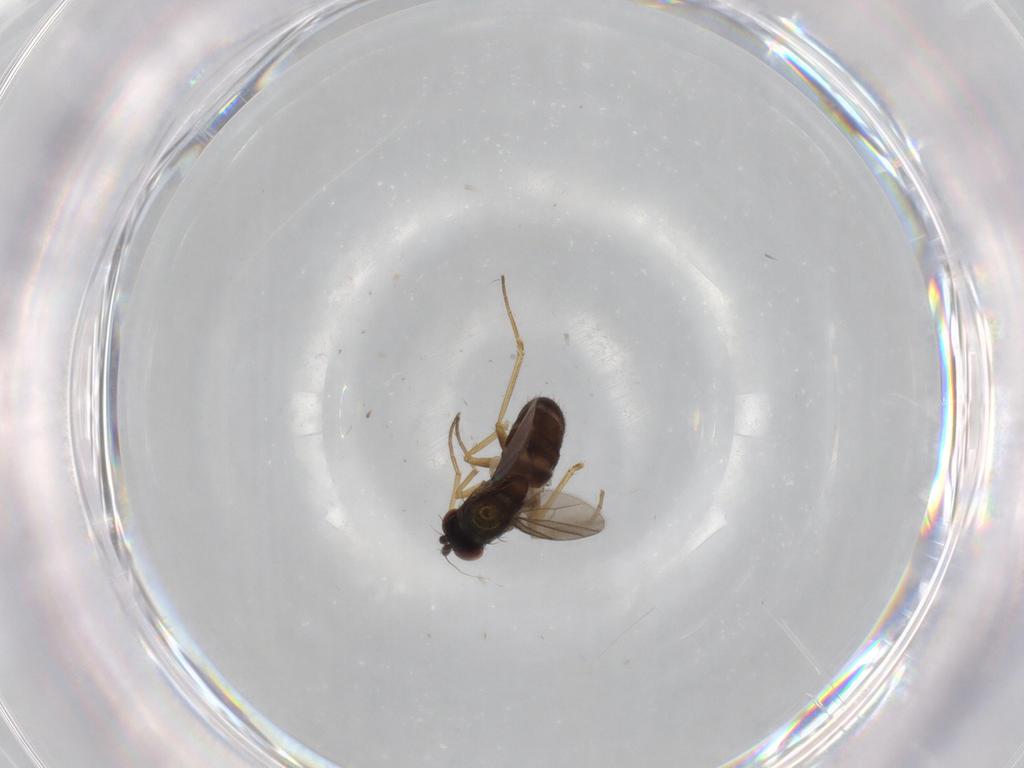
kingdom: Animalia
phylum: Arthropoda
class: Insecta
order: Diptera
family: Dolichopodidae
